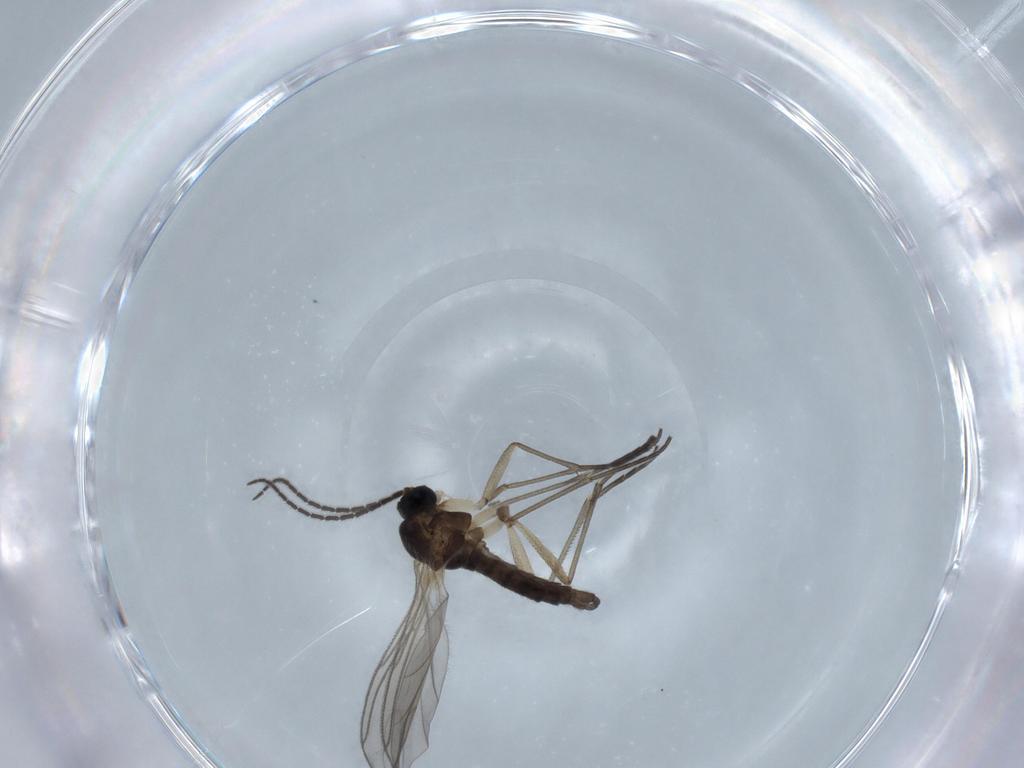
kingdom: Animalia
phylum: Arthropoda
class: Insecta
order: Diptera
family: Sciaridae
